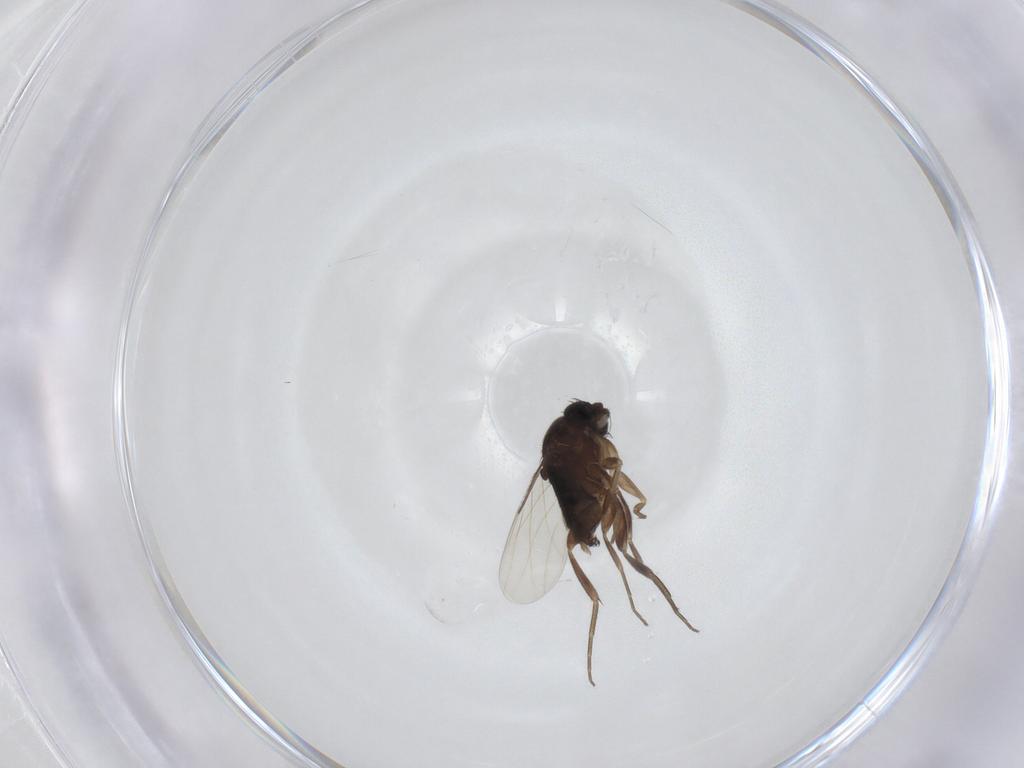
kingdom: Animalia
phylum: Arthropoda
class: Insecta
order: Diptera
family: Phoridae
